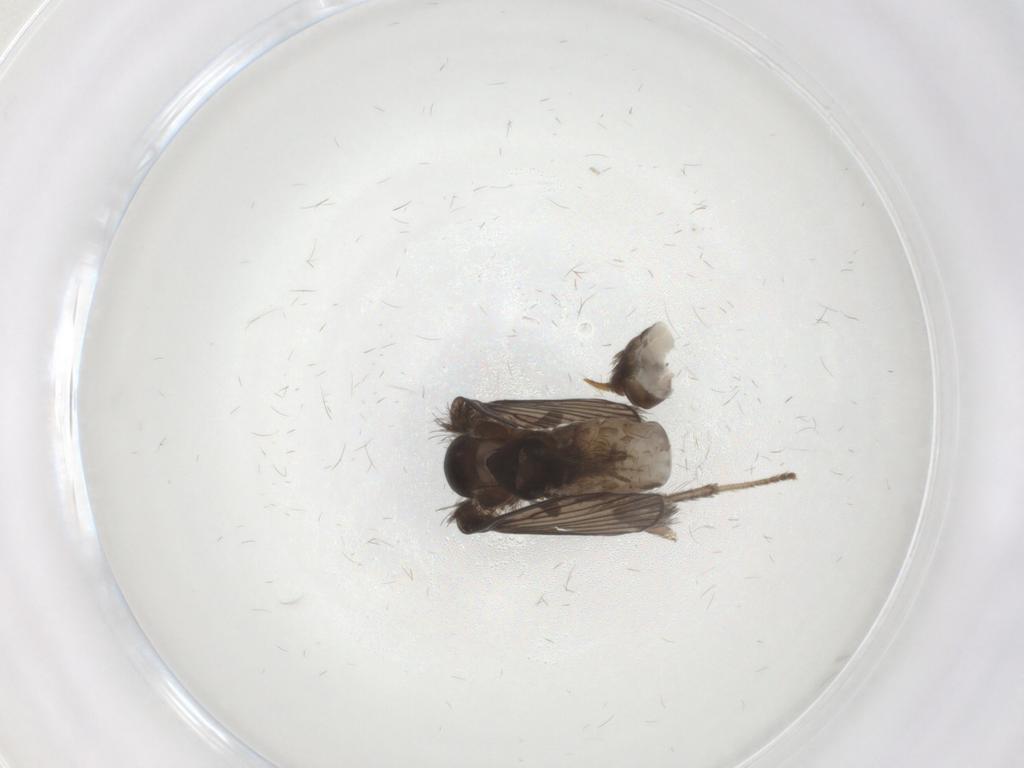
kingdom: Animalia
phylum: Arthropoda
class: Insecta
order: Diptera
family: Psychodidae
